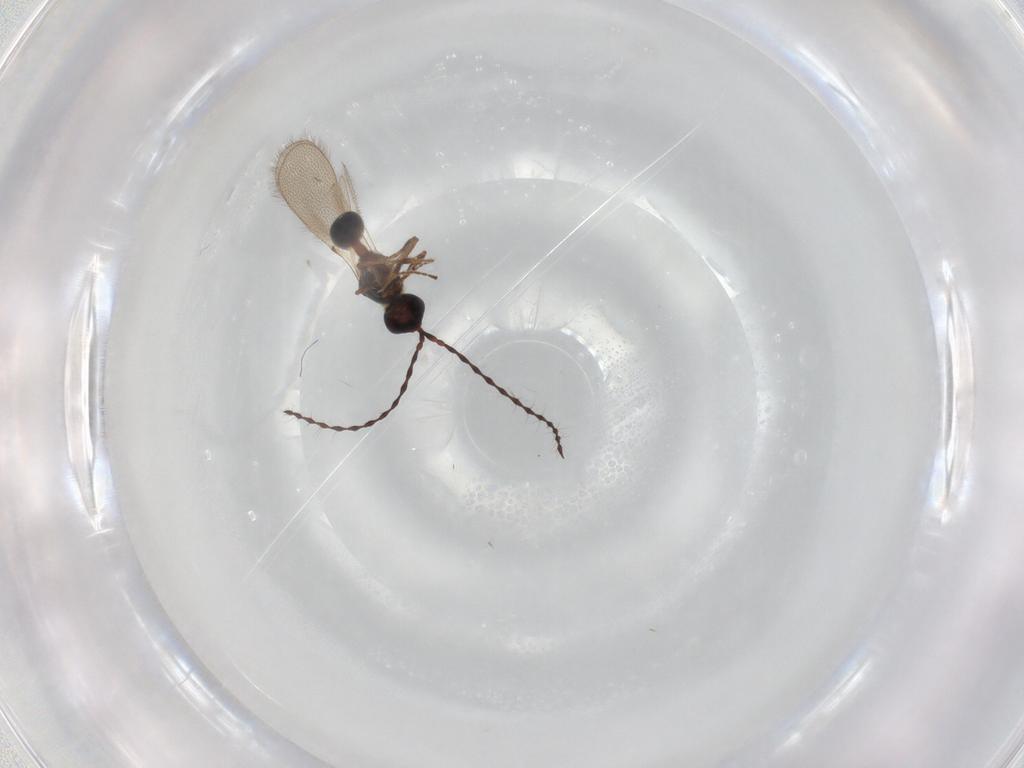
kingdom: Animalia
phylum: Arthropoda
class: Insecta
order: Hymenoptera
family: Diapriidae
